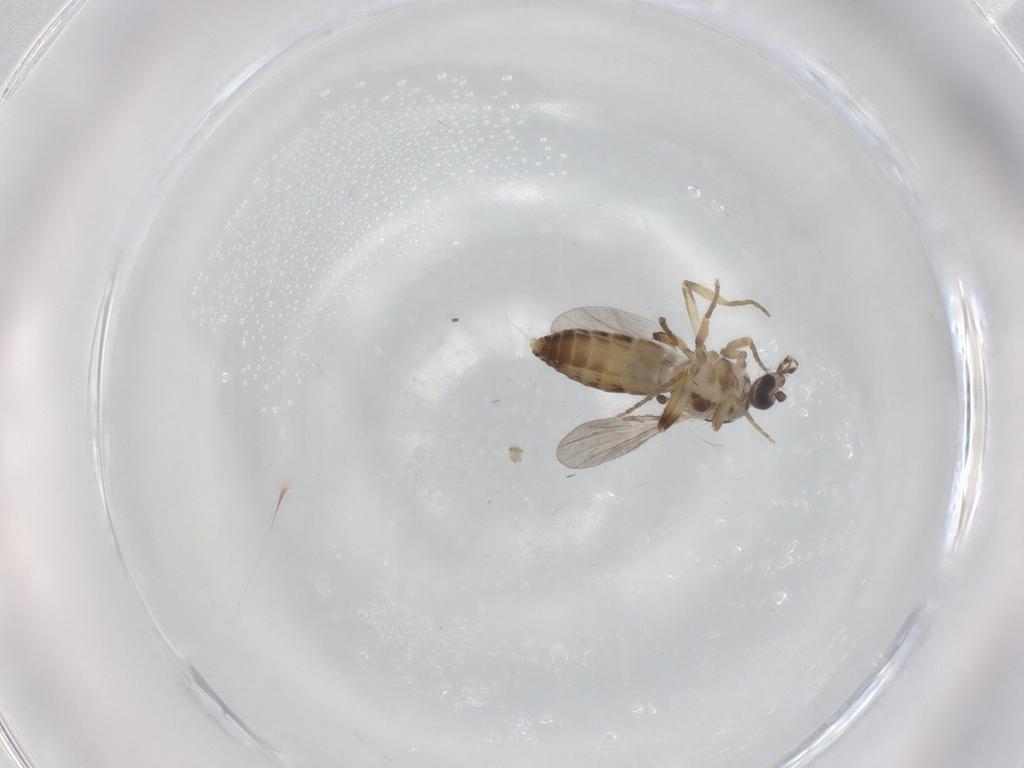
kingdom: Animalia
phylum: Arthropoda
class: Insecta
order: Diptera
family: Ceratopogonidae
